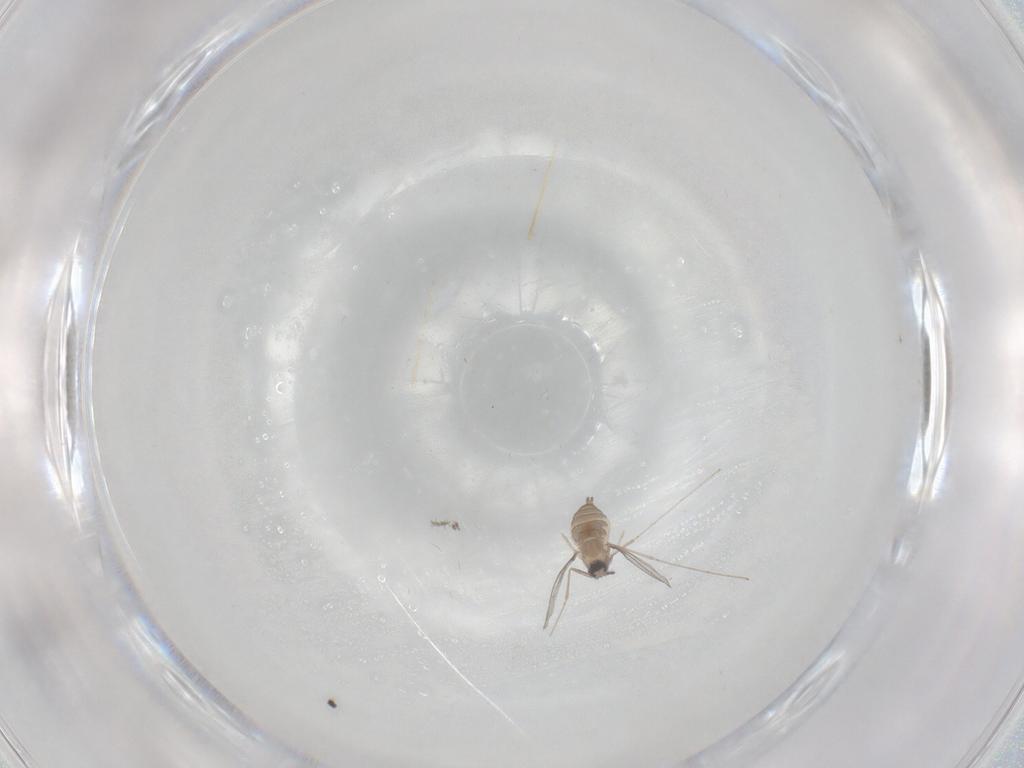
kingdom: Animalia
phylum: Arthropoda
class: Insecta
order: Diptera
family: Cecidomyiidae
